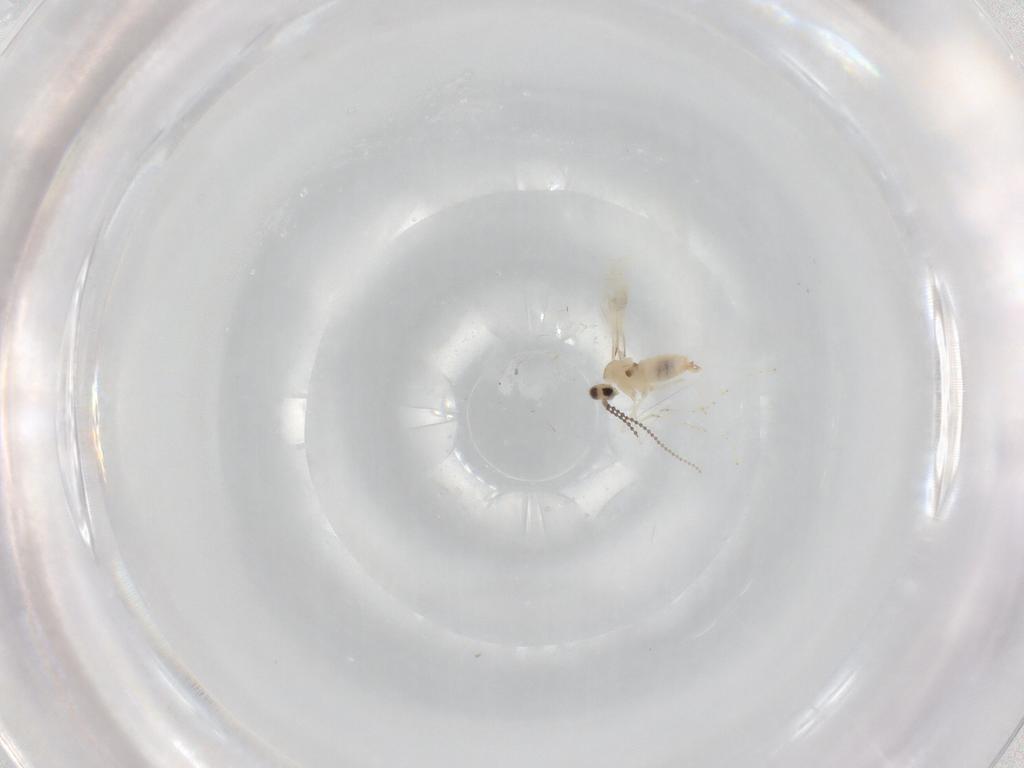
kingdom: Animalia
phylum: Arthropoda
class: Insecta
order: Diptera
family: Cecidomyiidae
